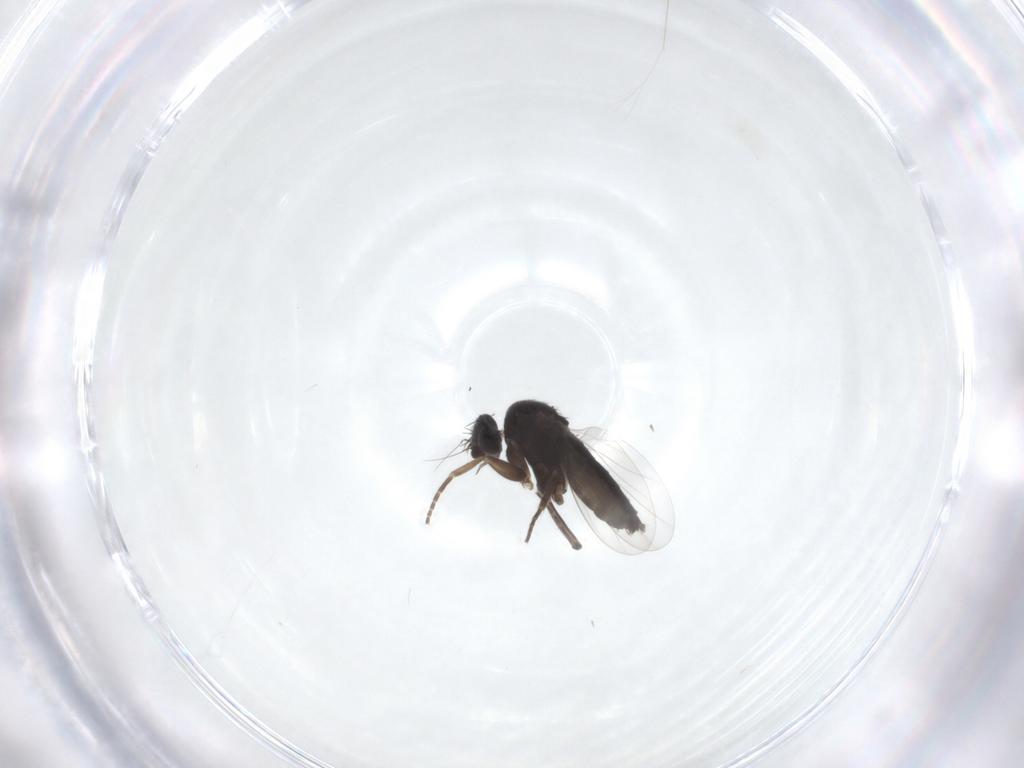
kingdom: Animalia
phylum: Arthropoda
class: Insecta
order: Diptera
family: Phoridae
